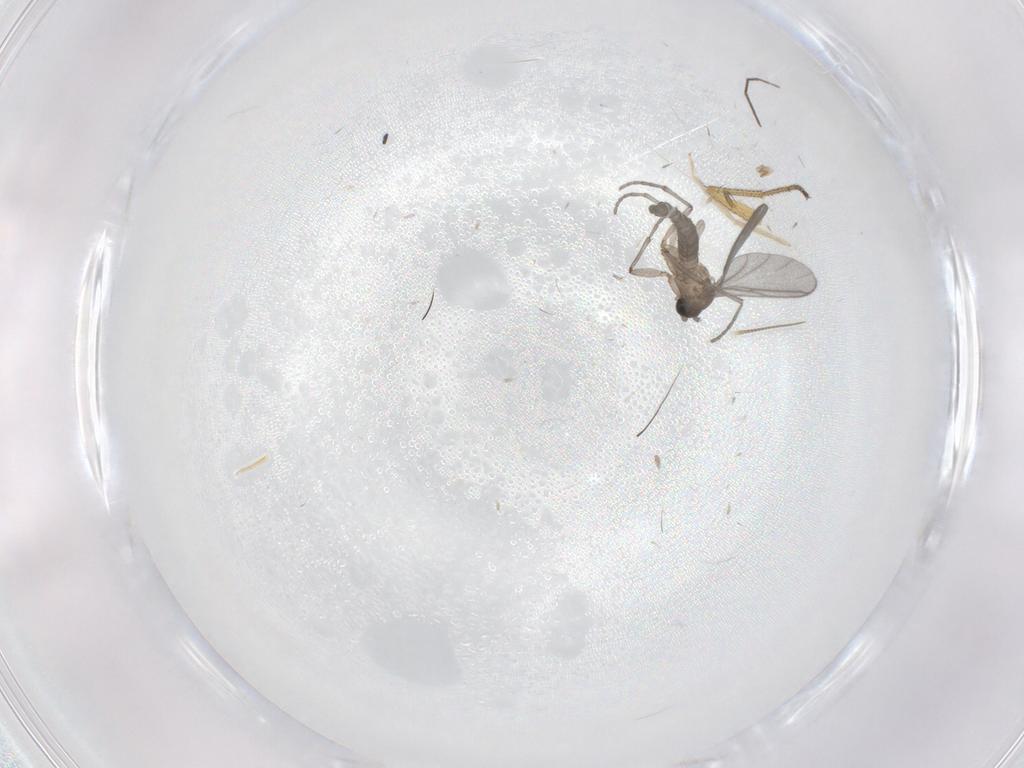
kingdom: Animalia
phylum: Arthropoda
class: Insecta
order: Diptera
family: Sciaridae
